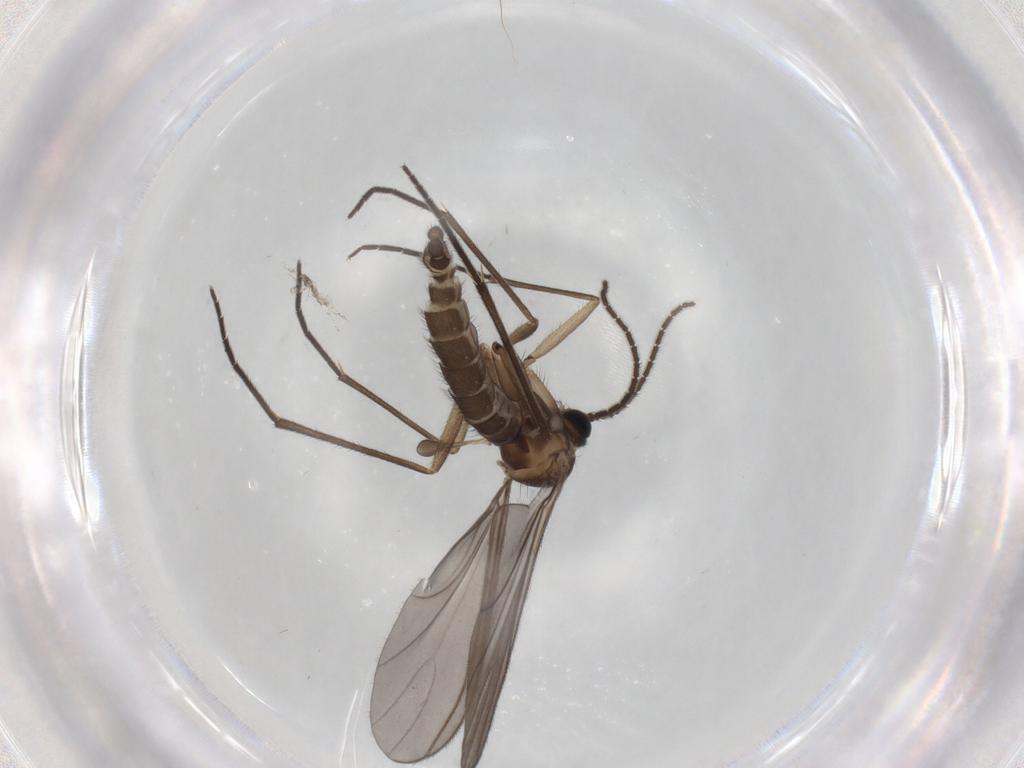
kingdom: Animalia
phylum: Arthropoda
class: Insecta
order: Diptera
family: Sciaridae
